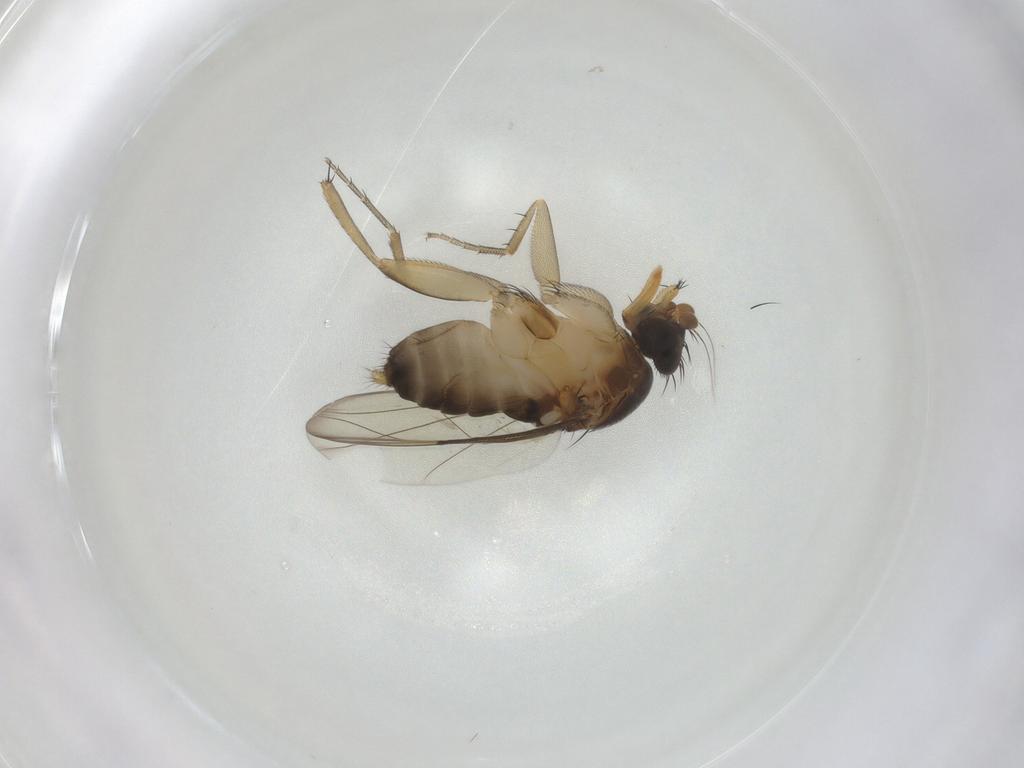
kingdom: Animalia
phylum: Arthropoda
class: Insecta
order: Diptera
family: Phoridae
